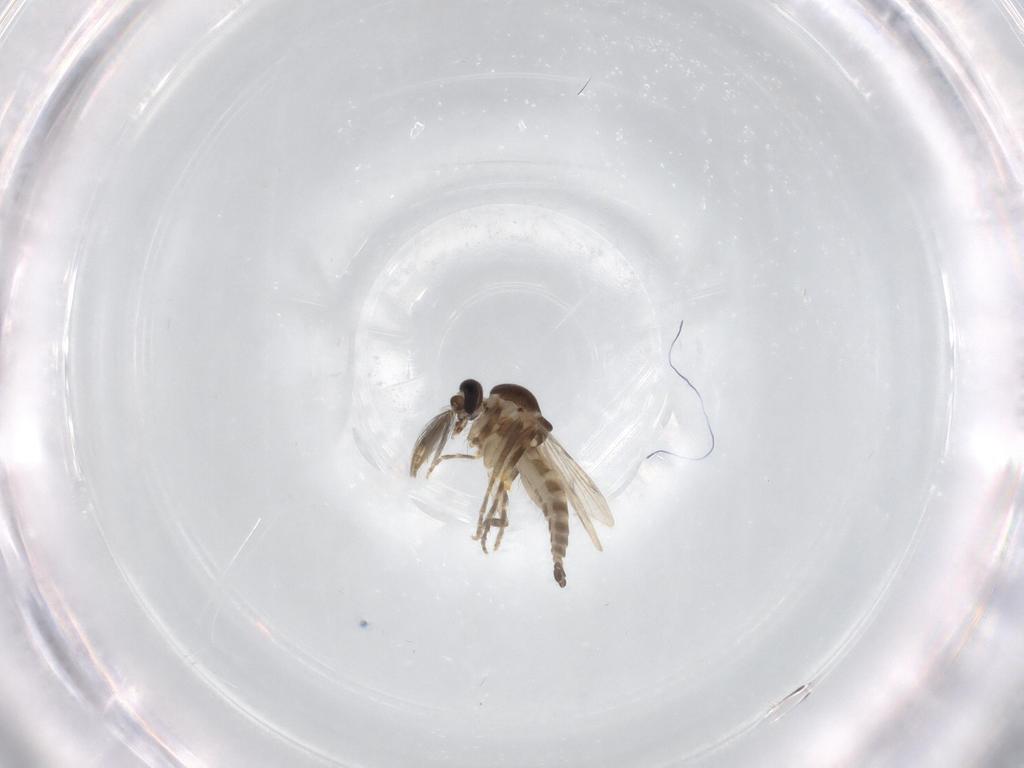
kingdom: Animalia
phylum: Arthropoda
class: Insecta
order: Diptera
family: Ceratopogonidae
